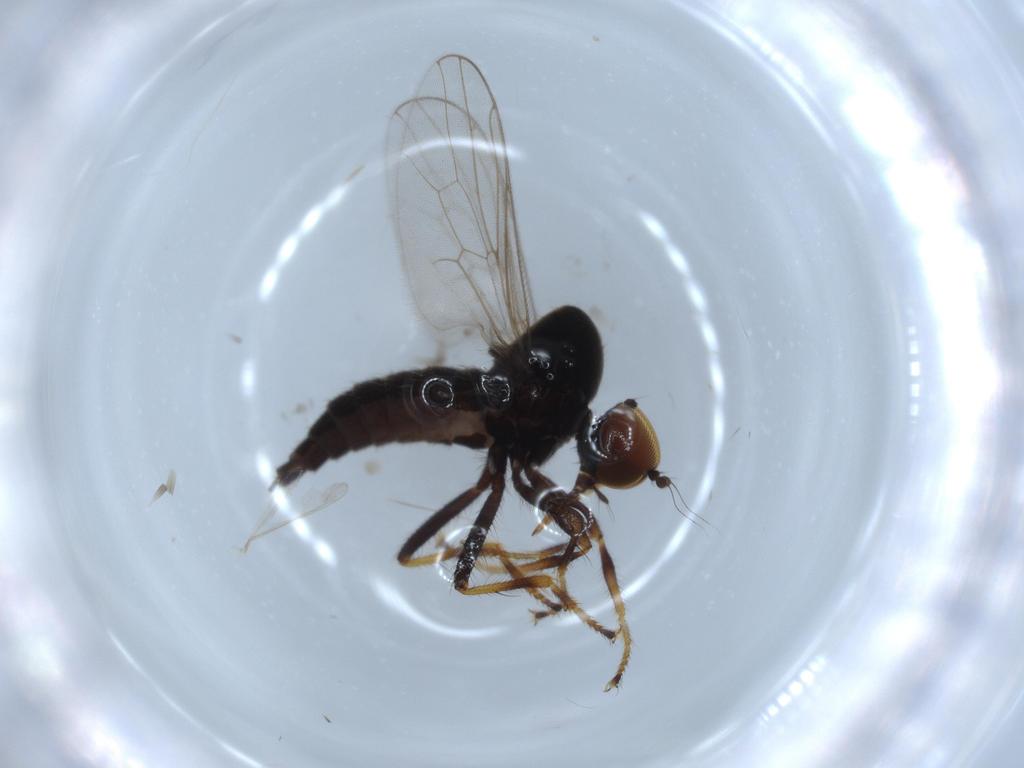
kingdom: Animalia
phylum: Arthropoda
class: Insecta
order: Diptera
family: Hybotidae
